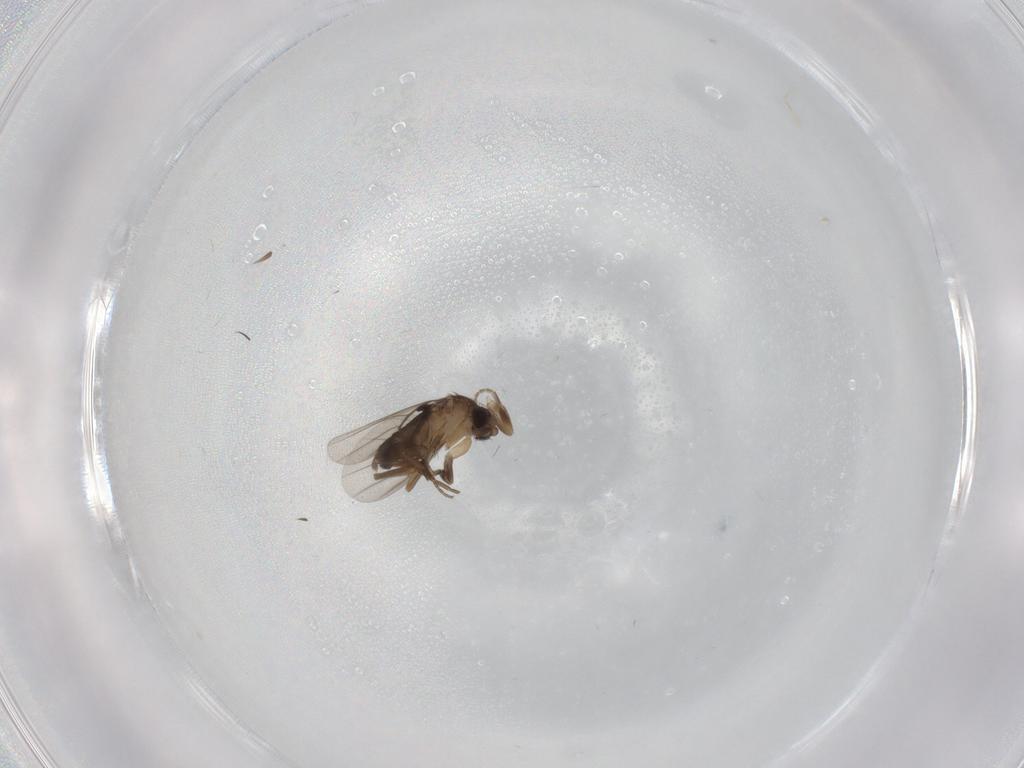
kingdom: Animalia
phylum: Arthropoda
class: Insecta
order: Diptera
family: Phoridae
